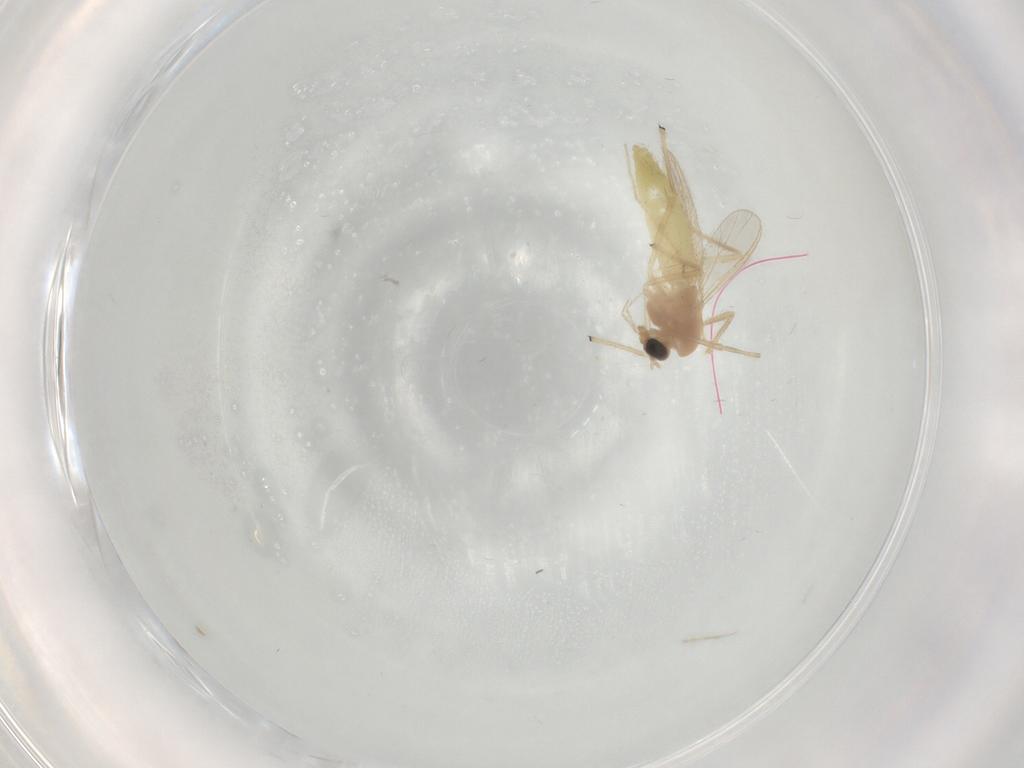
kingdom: Animalia
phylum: Arthropoda
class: Insecta
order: Diptera
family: Chironomidae
